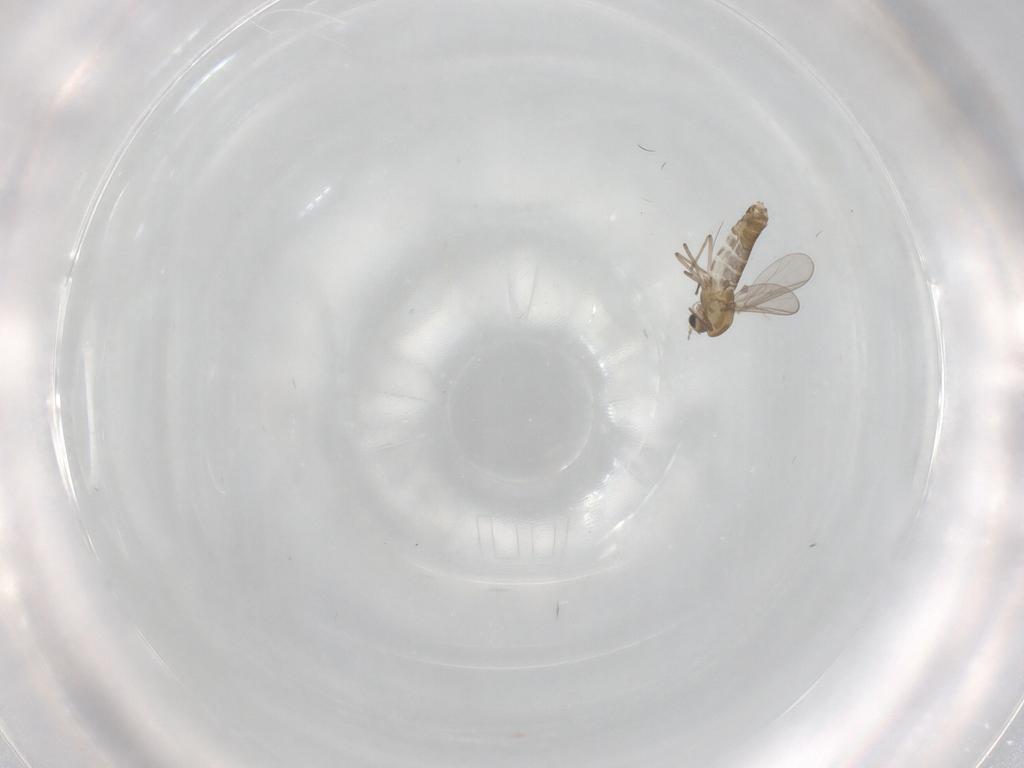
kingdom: Animalia
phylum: Arthropoda
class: Insecta
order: Diptera
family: Chironomidae
